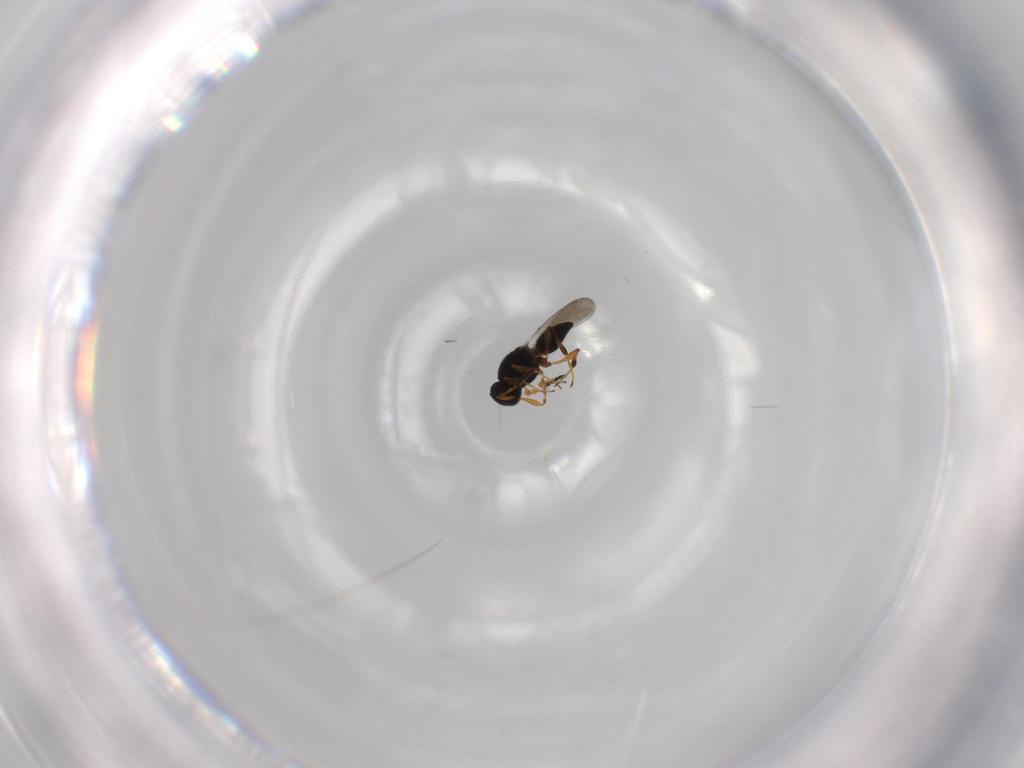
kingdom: Animalia
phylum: Arthropoda
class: Insecta
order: Hymenoptera
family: Platygastridae
